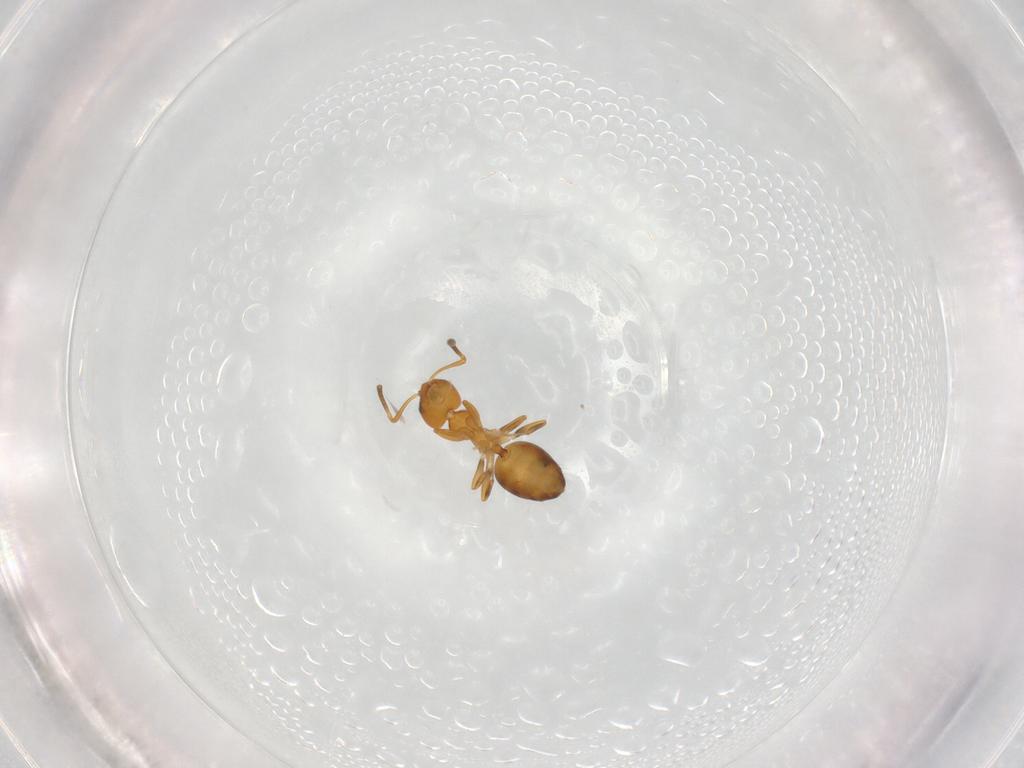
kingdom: Animalia
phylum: Arthropoda
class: Insecta
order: Hymenoptera
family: Formicidae
